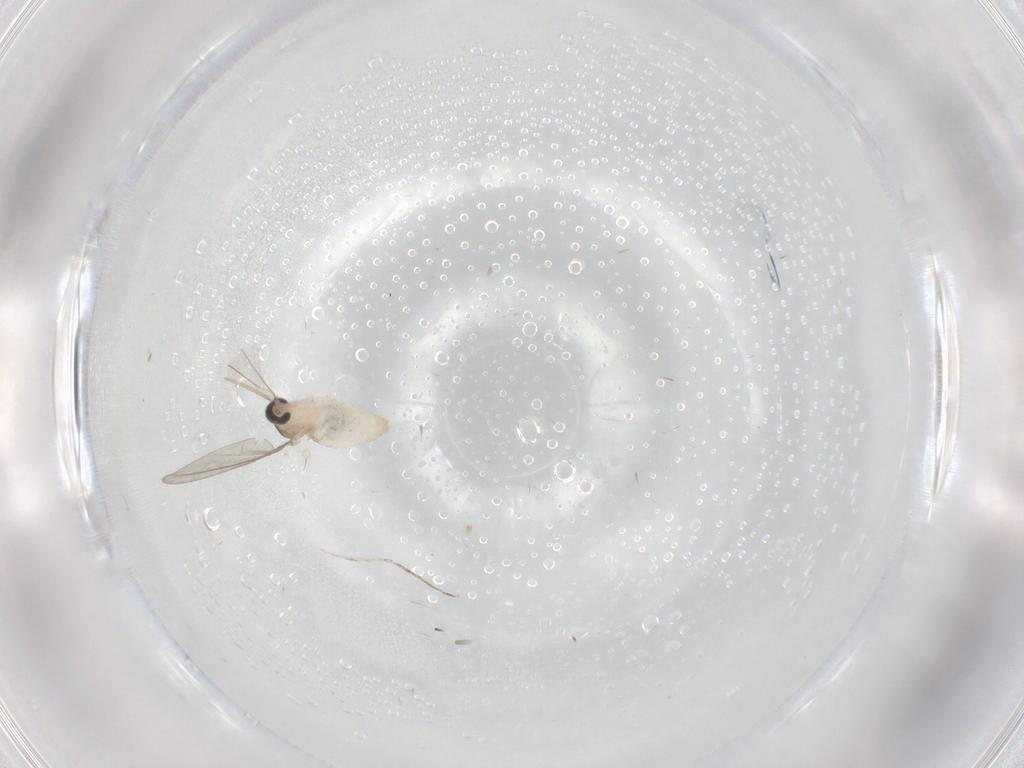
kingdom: Animalia
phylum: Arthropoda
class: Insecta
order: Diptera
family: Cecidomyiidae
